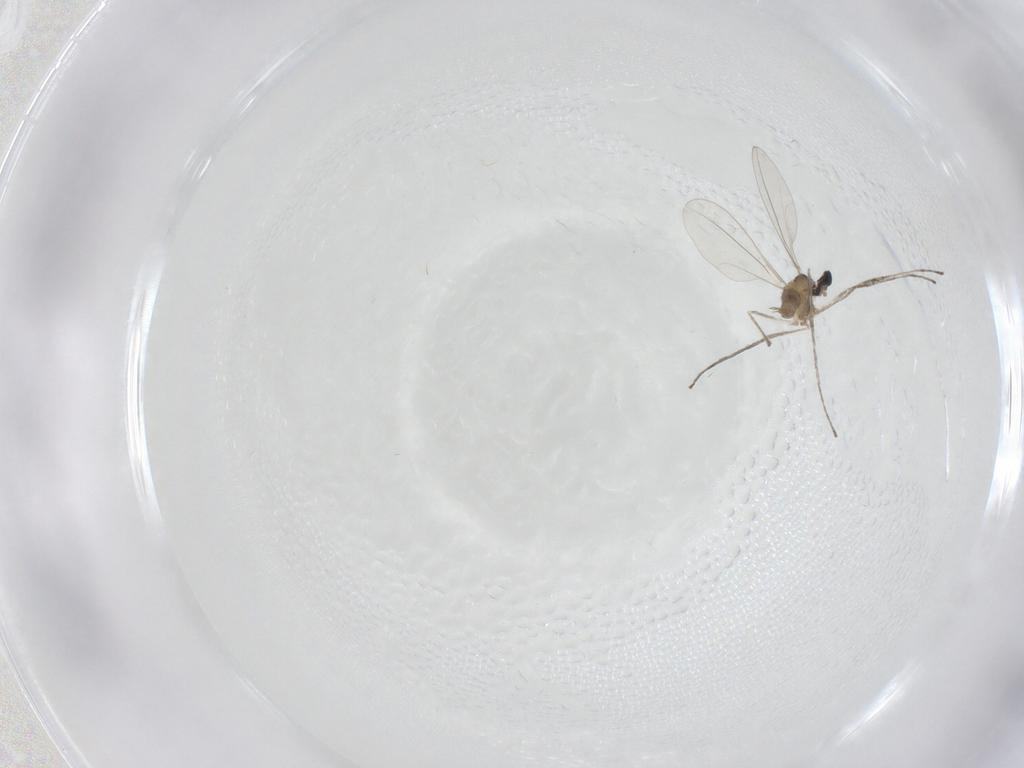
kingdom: Animalia
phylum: Arthropoda
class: Insecta
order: Diptera
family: Cecidomyiidae
